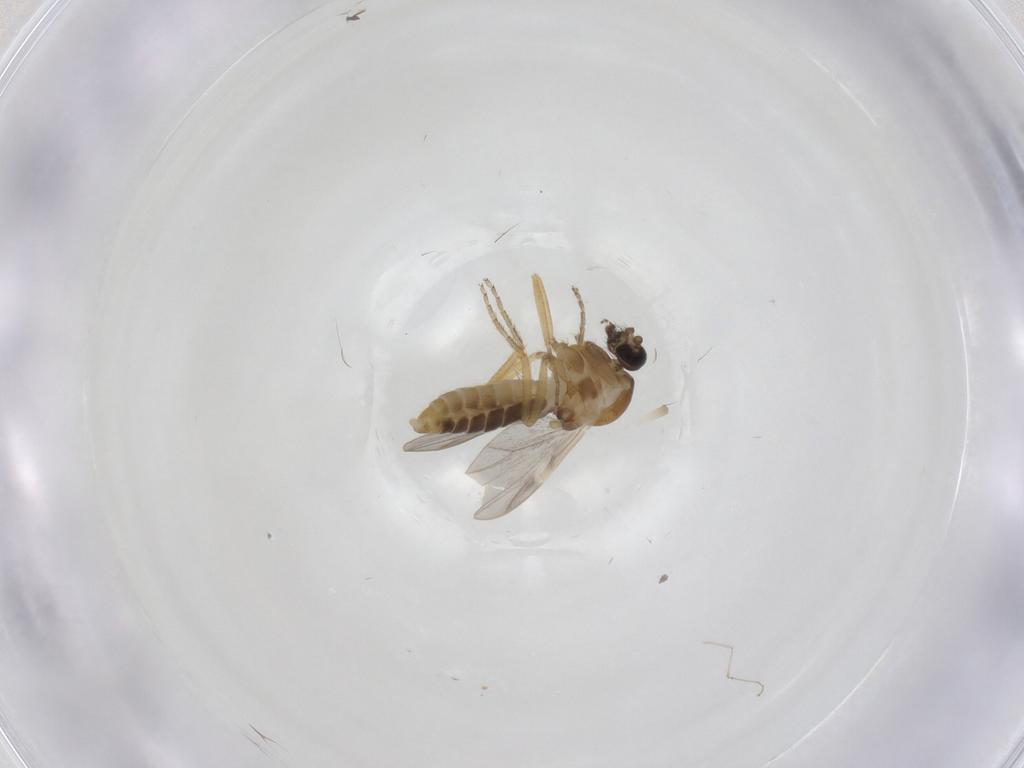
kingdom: Animalia
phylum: Arthropoda
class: Insecta
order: Diptera
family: Ceratopogonidae
